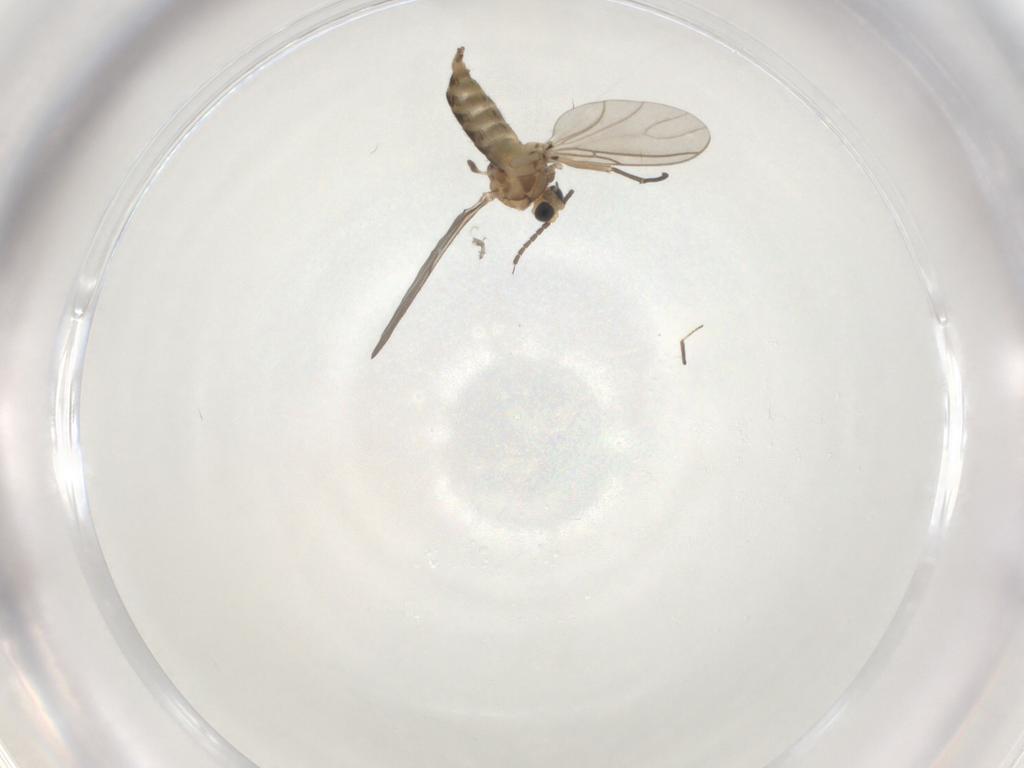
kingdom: Animalia
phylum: Arthropoda
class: Insecta
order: Diptera
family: Sciaridae
